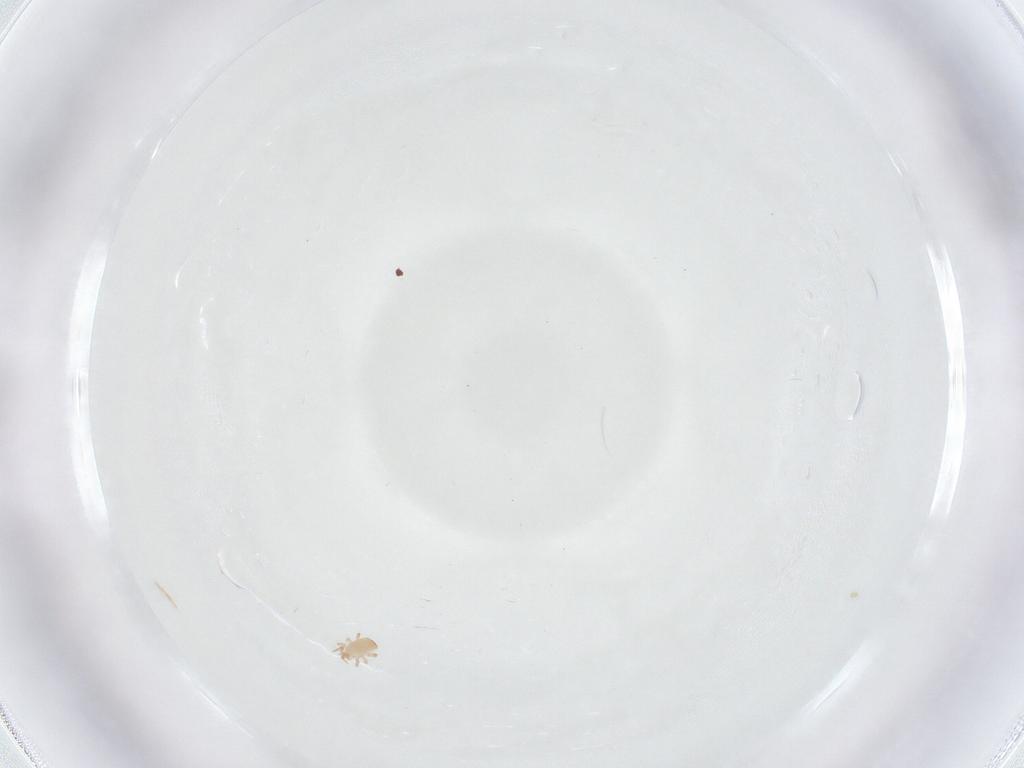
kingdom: Animalia
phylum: Arthropoda
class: Arachnida
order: Mesostigmata
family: Ascidae
